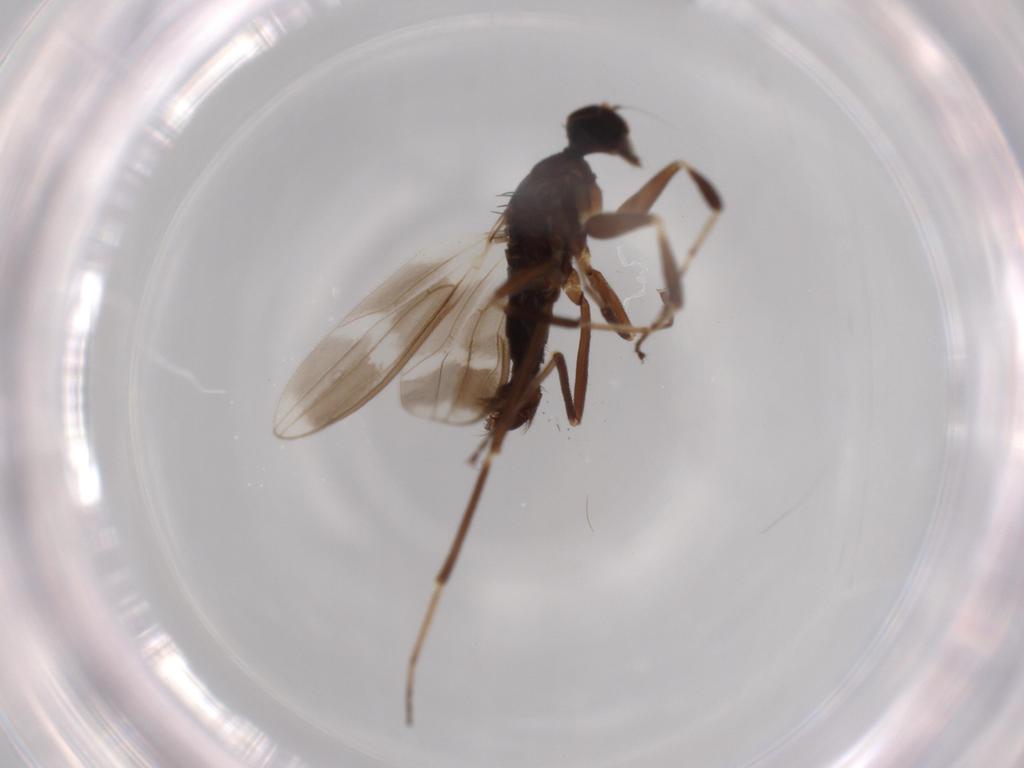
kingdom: Animalia
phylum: Arthropoda
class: Insecta
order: Diptera
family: Hybotidae
